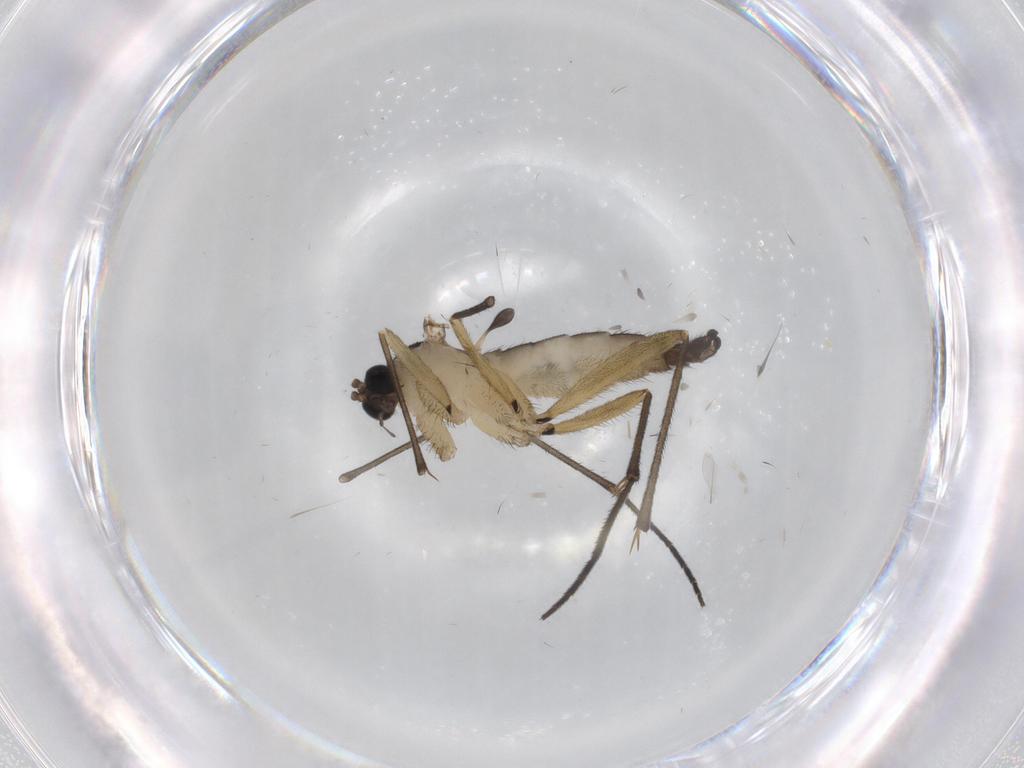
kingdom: Animalia
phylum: Arthropoda
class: Insecta
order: Diptera
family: Sciaridae
